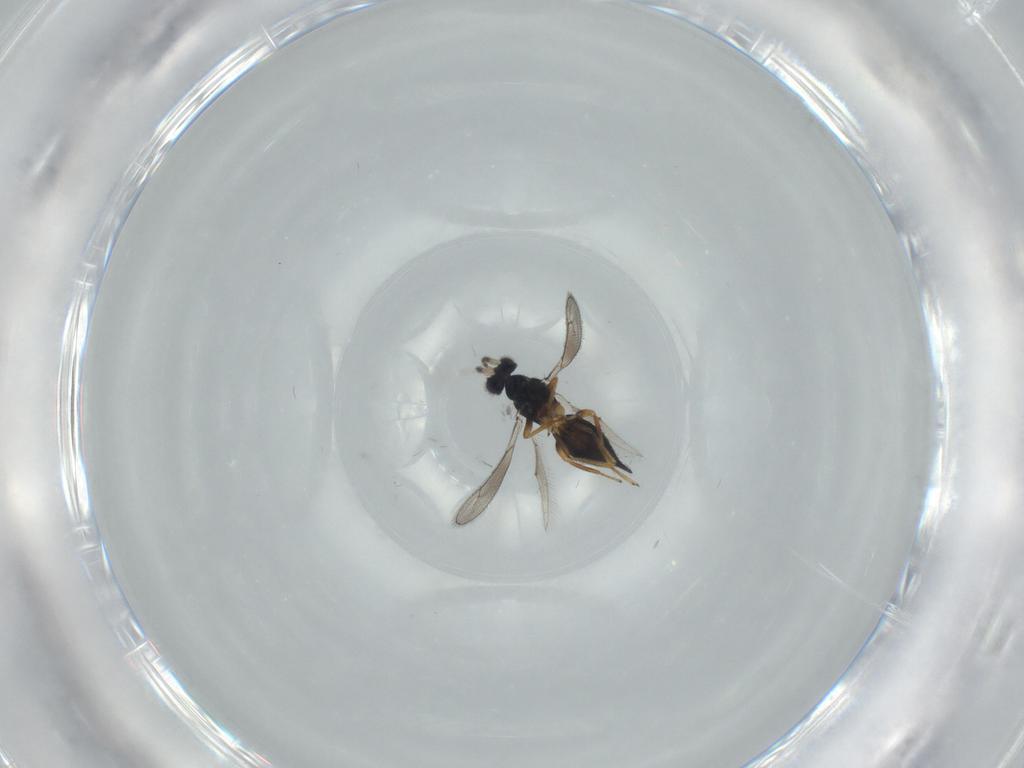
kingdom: Animalia
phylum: Arthropoda
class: Insecta
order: Hymenoptera
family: Eulophidae
